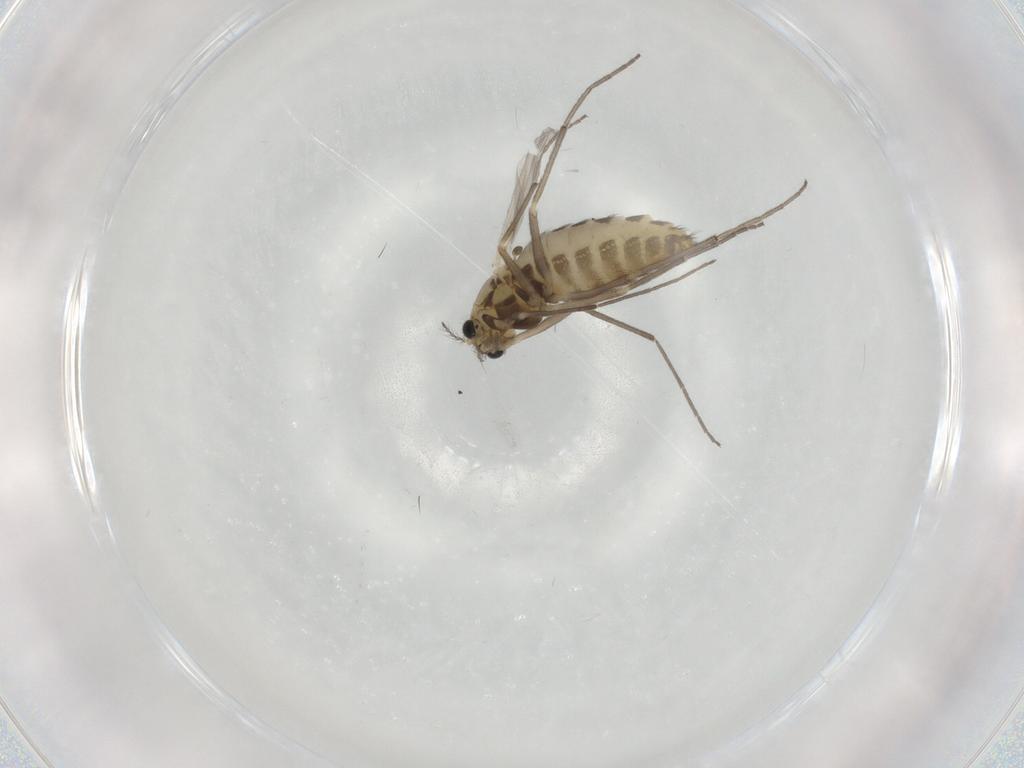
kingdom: Animalia
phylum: Arthropoda
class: Insecta
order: Diptera
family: Chironomidae
